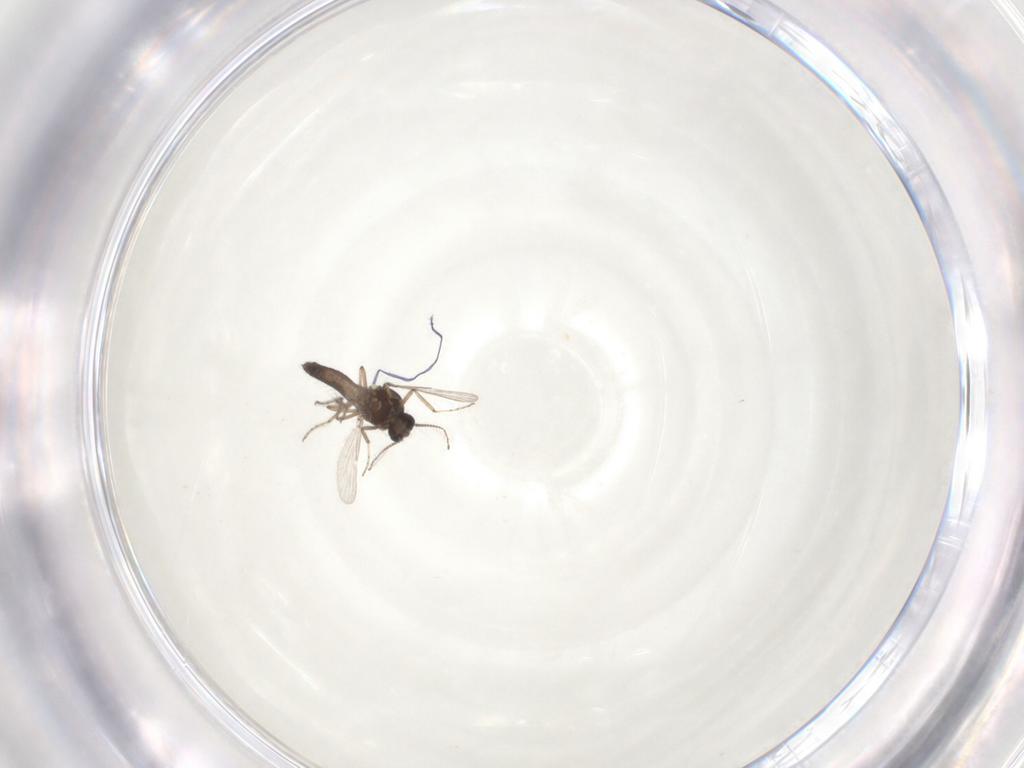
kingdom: Animalia
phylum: Arthropoda
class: Insecta
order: Diptera
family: Ceratopogonidae
